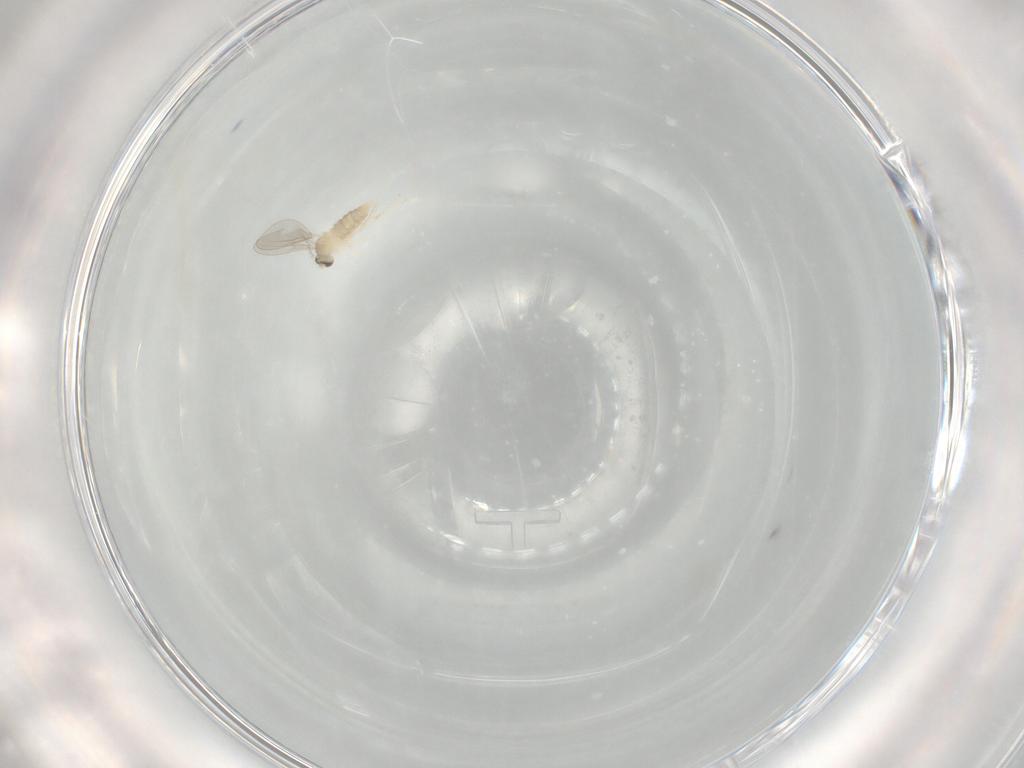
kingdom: Animalia
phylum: Arthropoda
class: Insecta
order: Diptera
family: Cecidomyiidae
